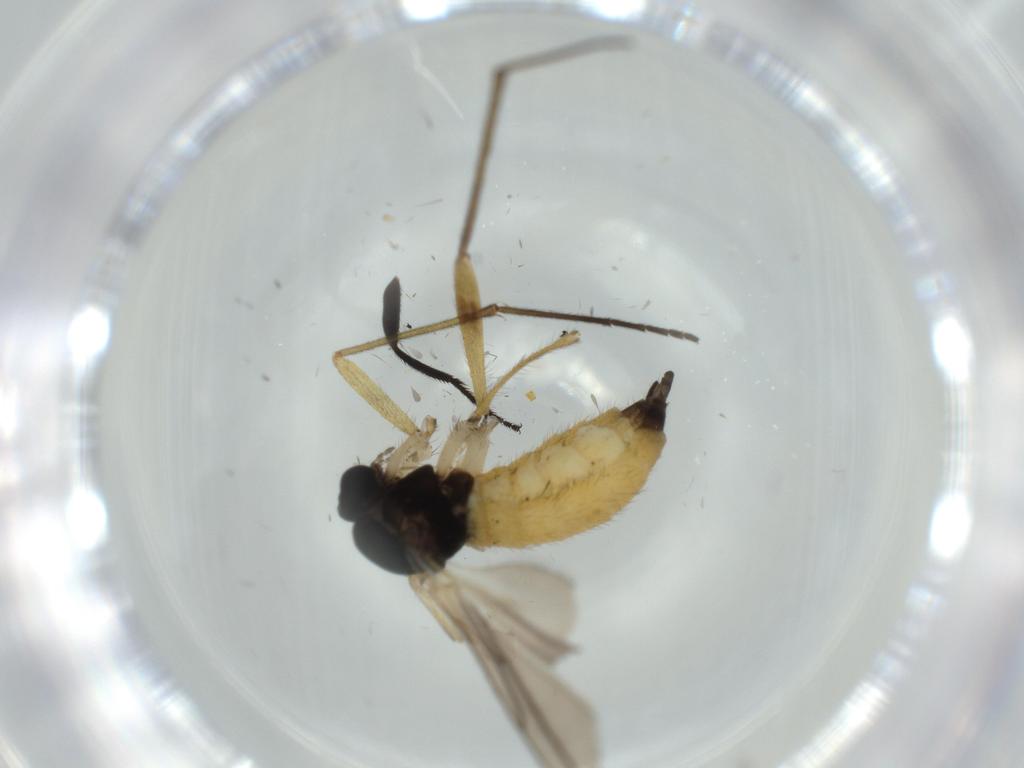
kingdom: Animalia
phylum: Arthropoda
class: Insecta
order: Diptera
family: Sciaridae
